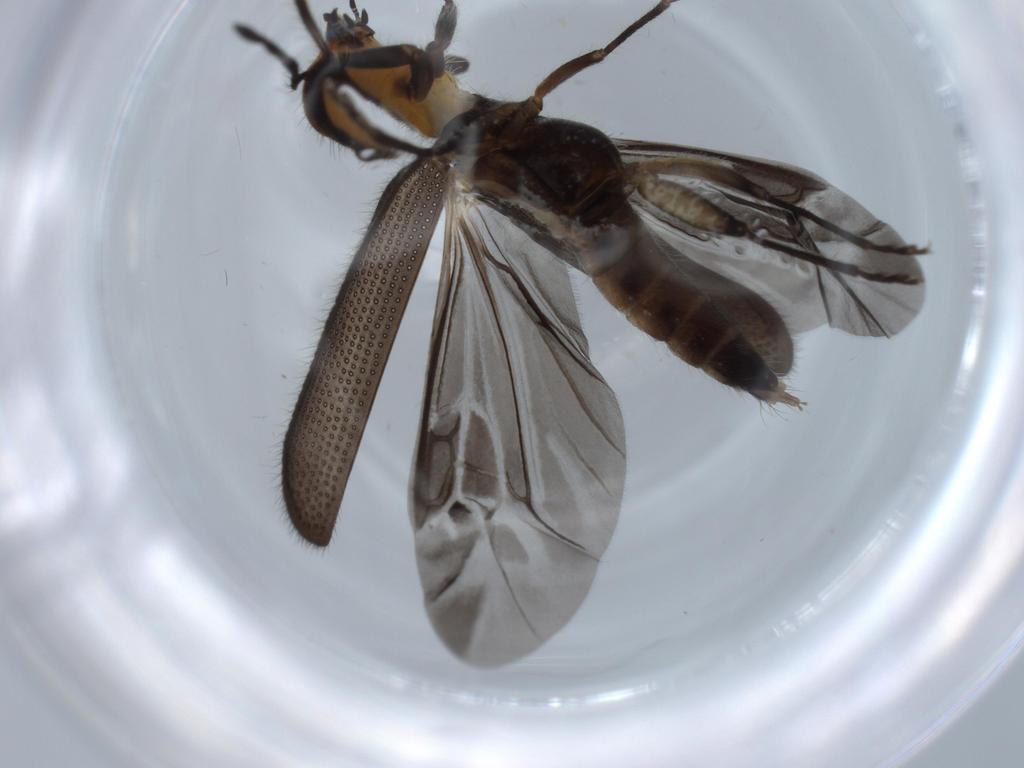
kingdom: Animalia
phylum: Arthropoda
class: Insecta
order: Coleoptera
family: Cleridae
